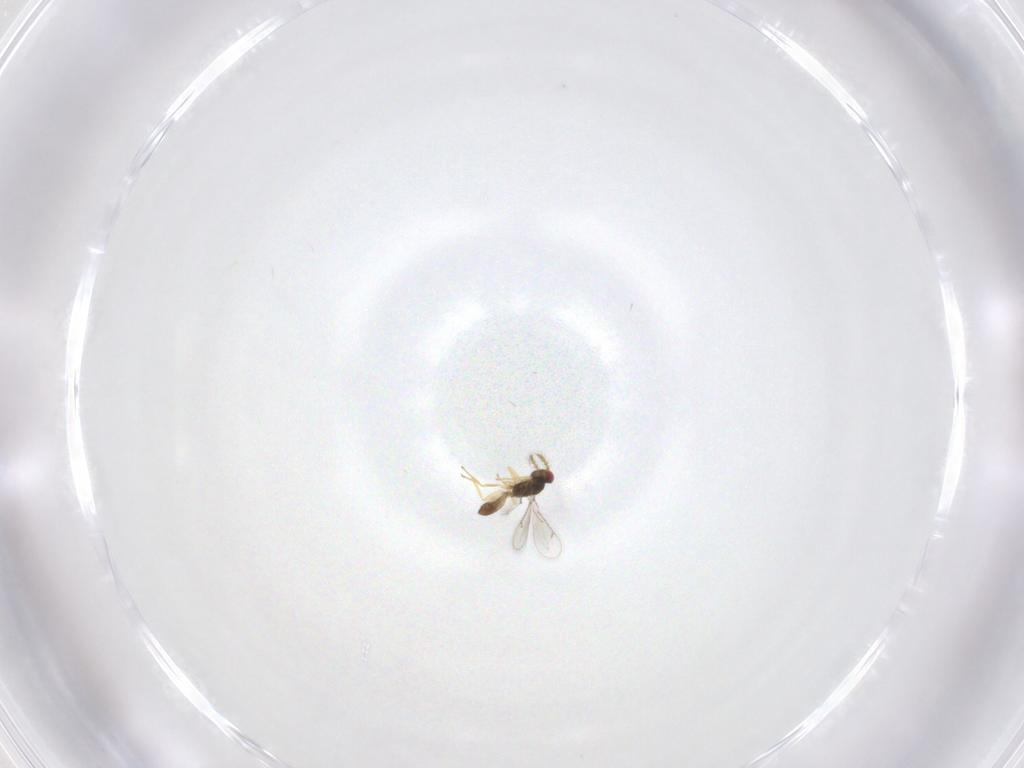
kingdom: Animalia
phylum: Arthropoda
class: Insecta
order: Hymenoptera
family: Eulophidae
